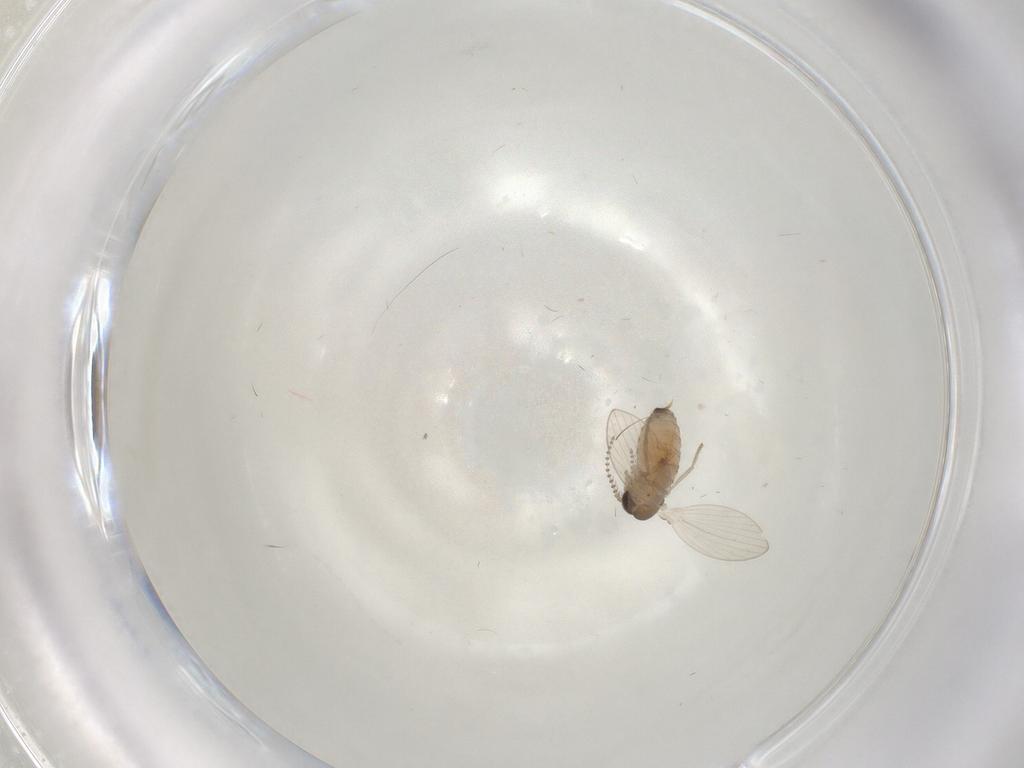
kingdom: Animalia
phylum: Arthropoda
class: Insecta
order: Diptera
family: Psychodidae
